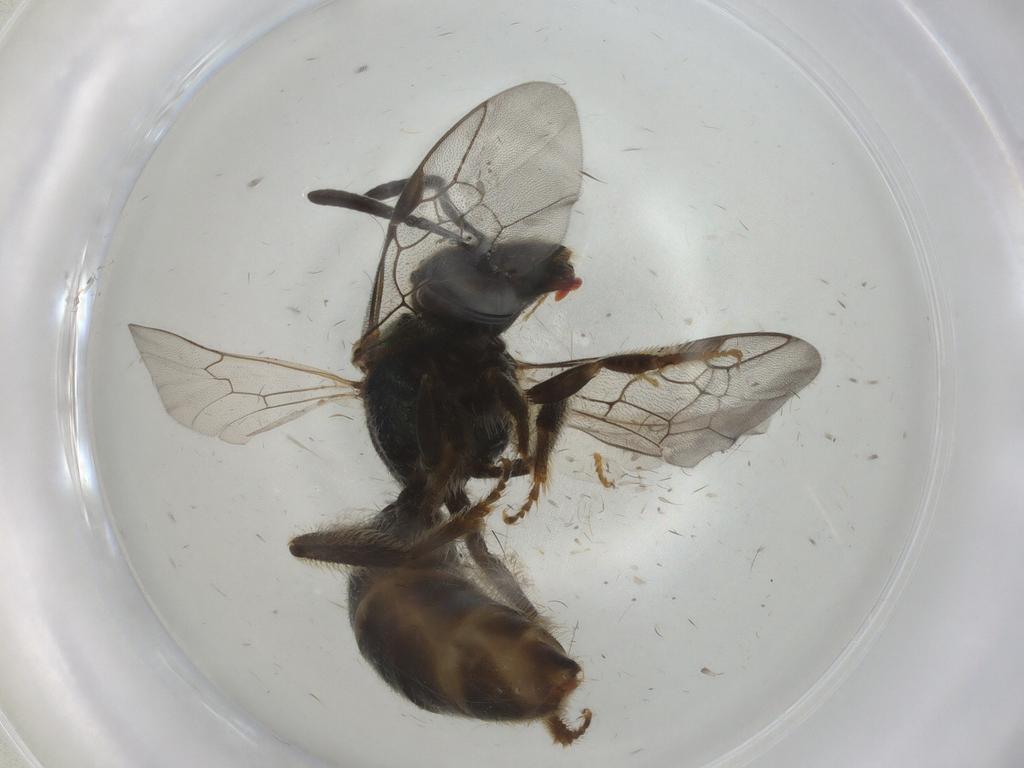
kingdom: Animalia
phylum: Arthropoda
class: Insecta
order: Hymenoptera
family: Halictidae
